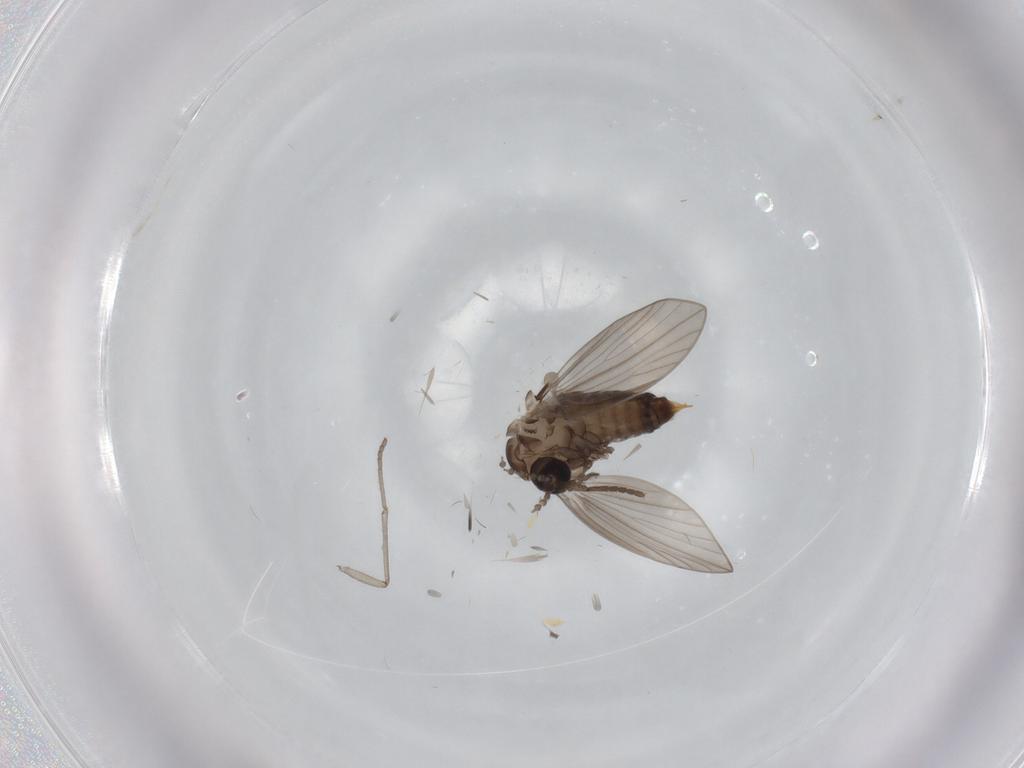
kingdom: Animalia
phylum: Arthropoda
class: Insecta
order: Diptera
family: Psychodidae
